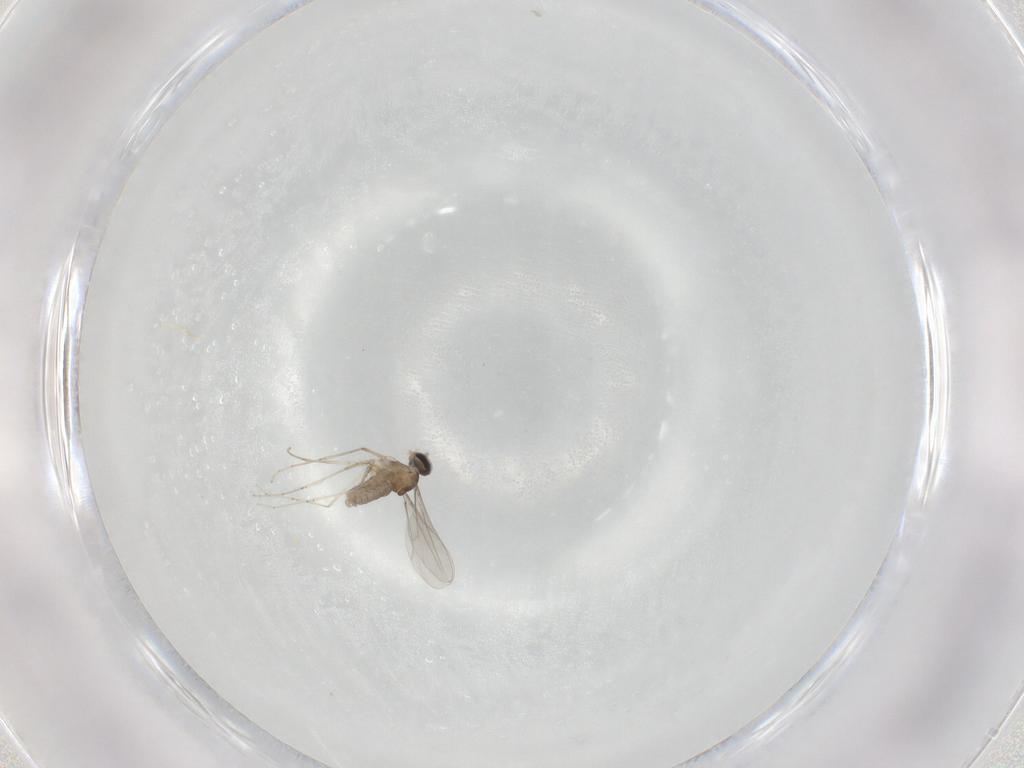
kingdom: Animalia
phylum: Arthropoda
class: Insecta
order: Diptera
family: Cecidomyiidae
